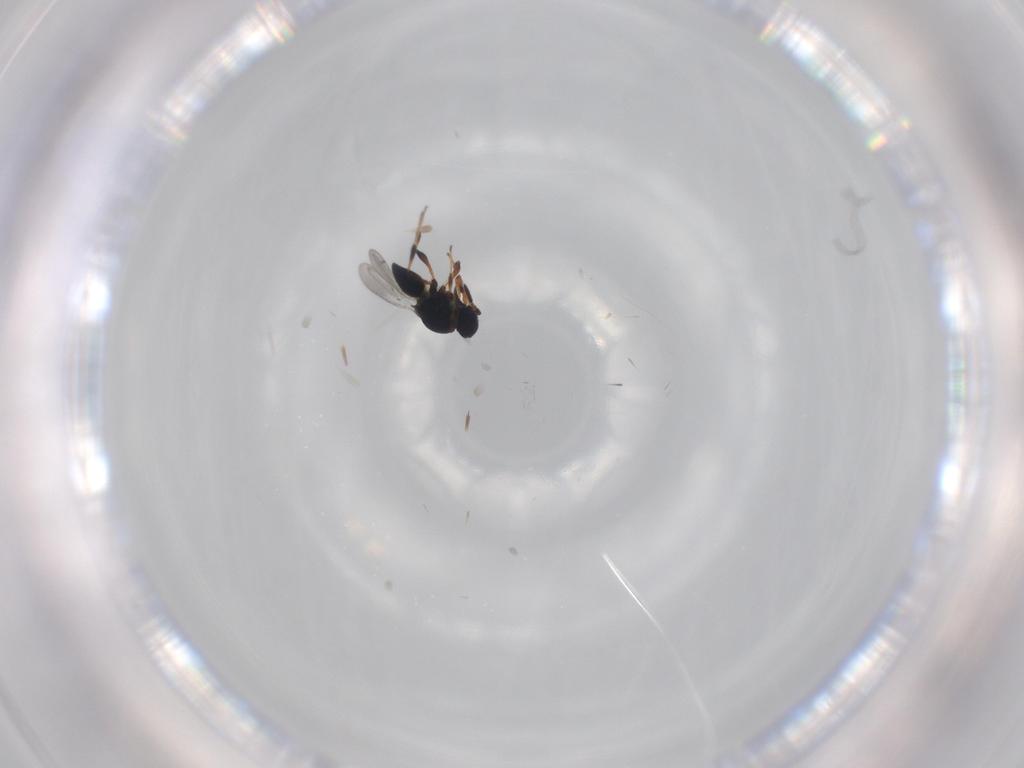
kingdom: Animalia
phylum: Arthropoda
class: Insecta
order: Hymenoptera
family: Platygastridae
